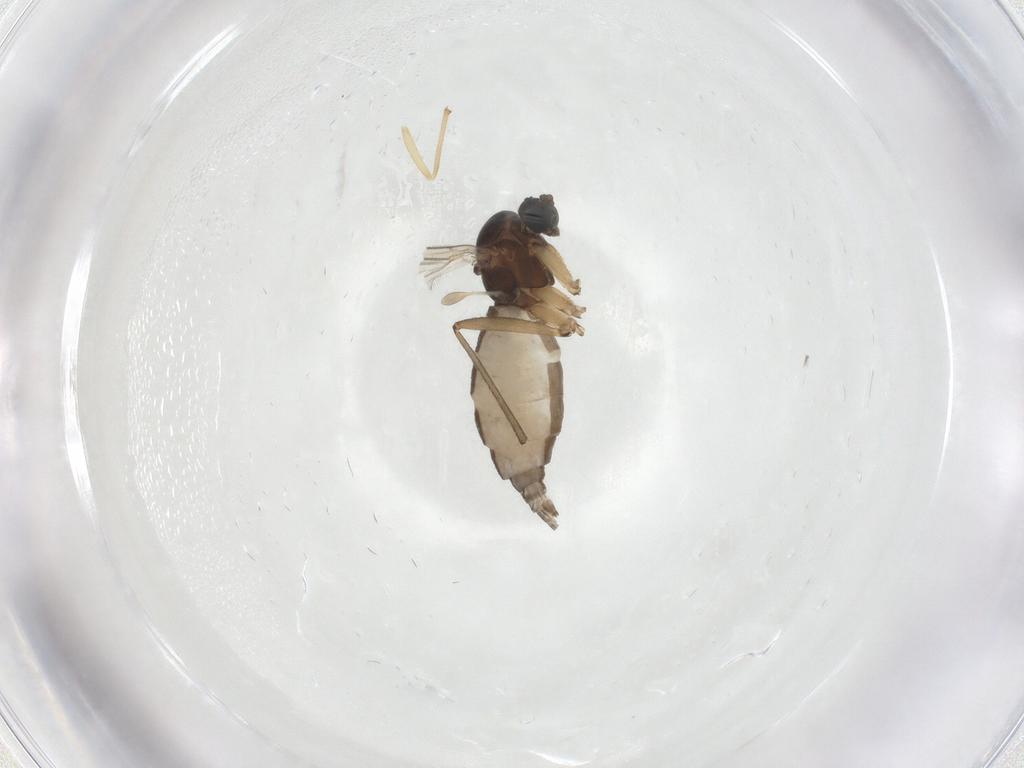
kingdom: Animalia
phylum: Arthropoda
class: Insecta
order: Diptera
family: Sciaridae
